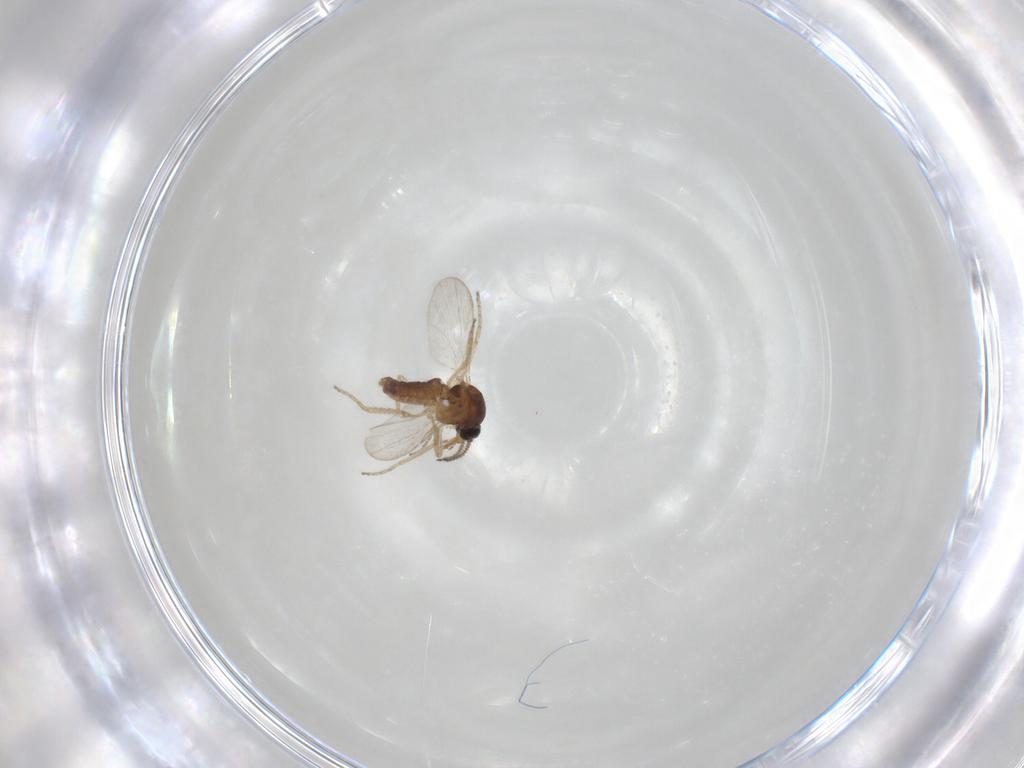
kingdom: Animalia
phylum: Arthropoda
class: Insecta
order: Diptera
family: Ceratopogonidae
